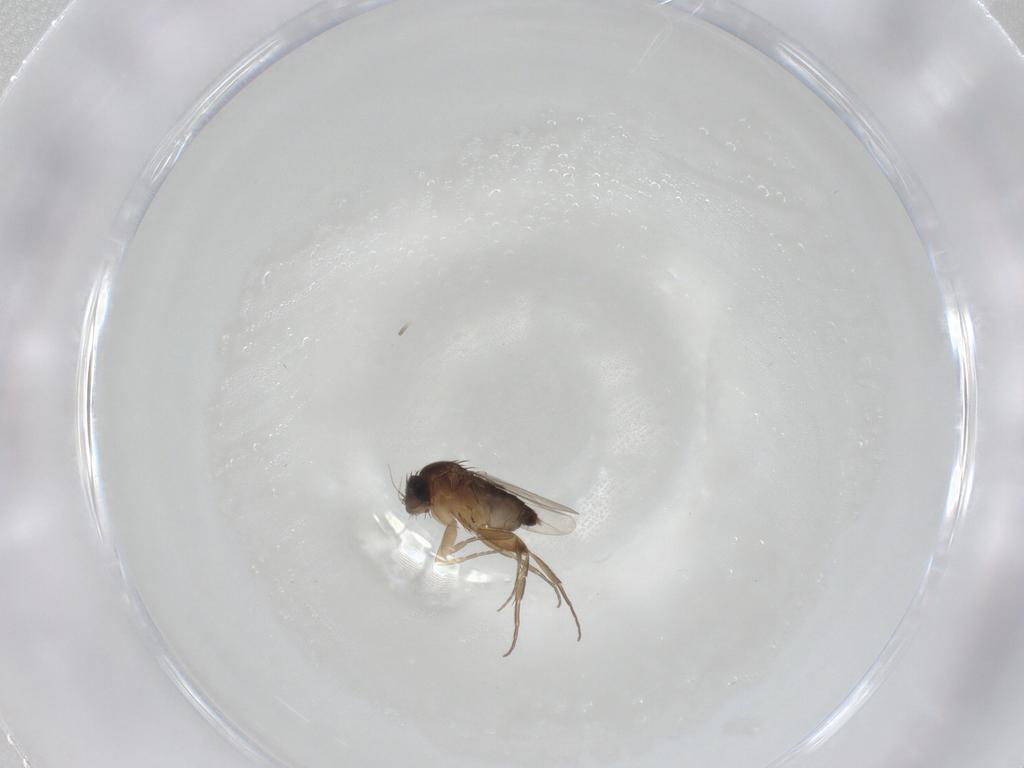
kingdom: Animalia
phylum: Arthropoda
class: Insecta
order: Diptera
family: Phoridae
